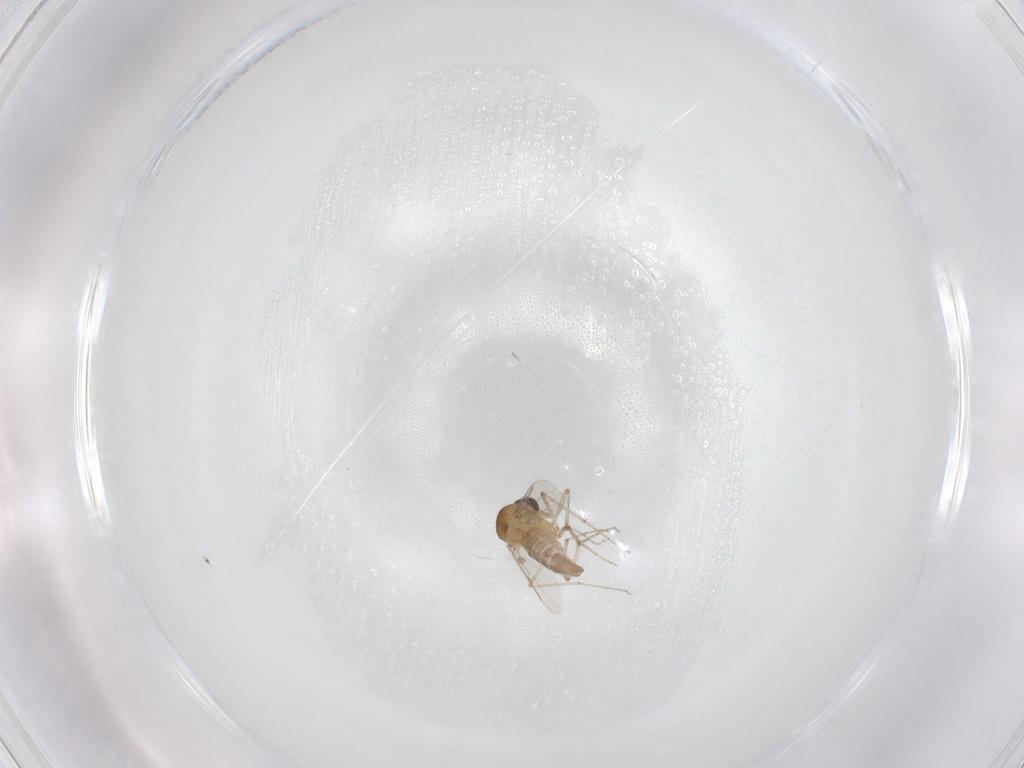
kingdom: Animalia
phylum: Arthropoda
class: Insecta
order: Diptera
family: Ceratopogonidae
